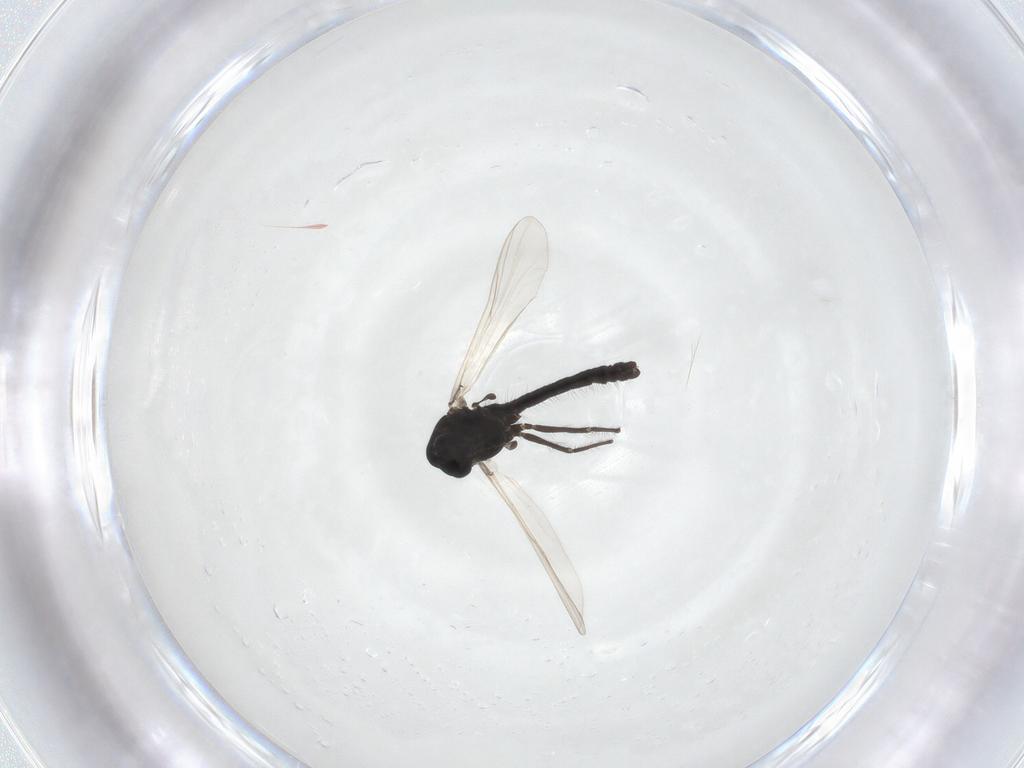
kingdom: Animalia
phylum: Arthropoda
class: Insecta
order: Diptera
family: Chironomidae
